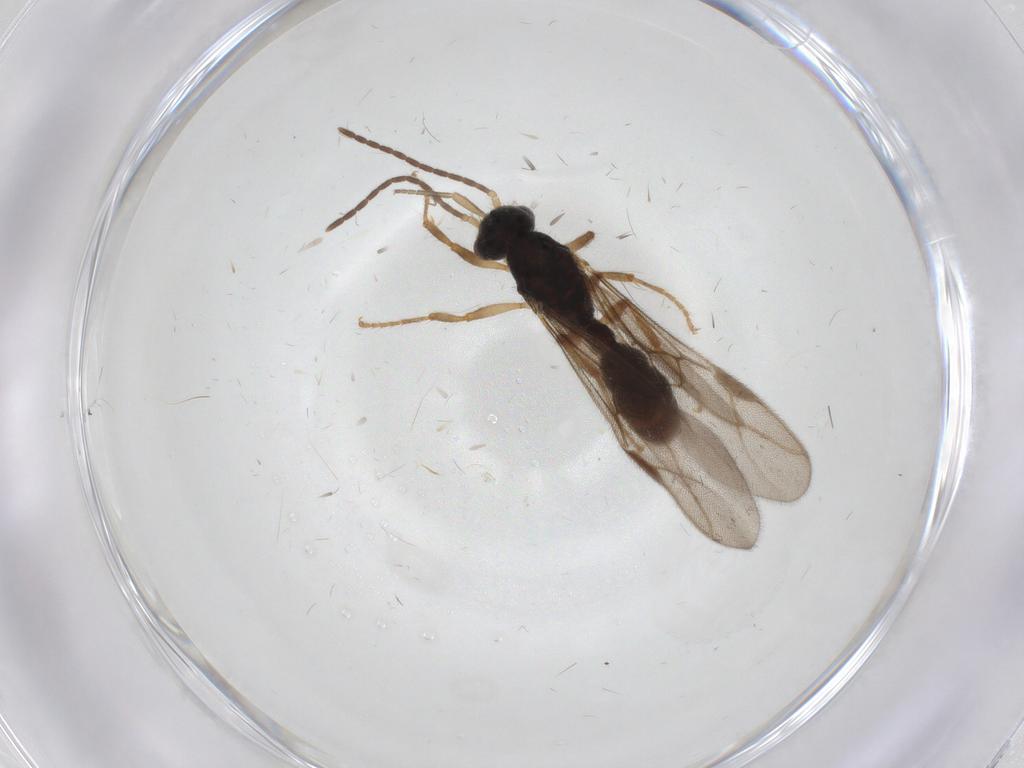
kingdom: Animalia
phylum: Arthropoda
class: Insecta
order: Hymenoptera
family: Formicidae
